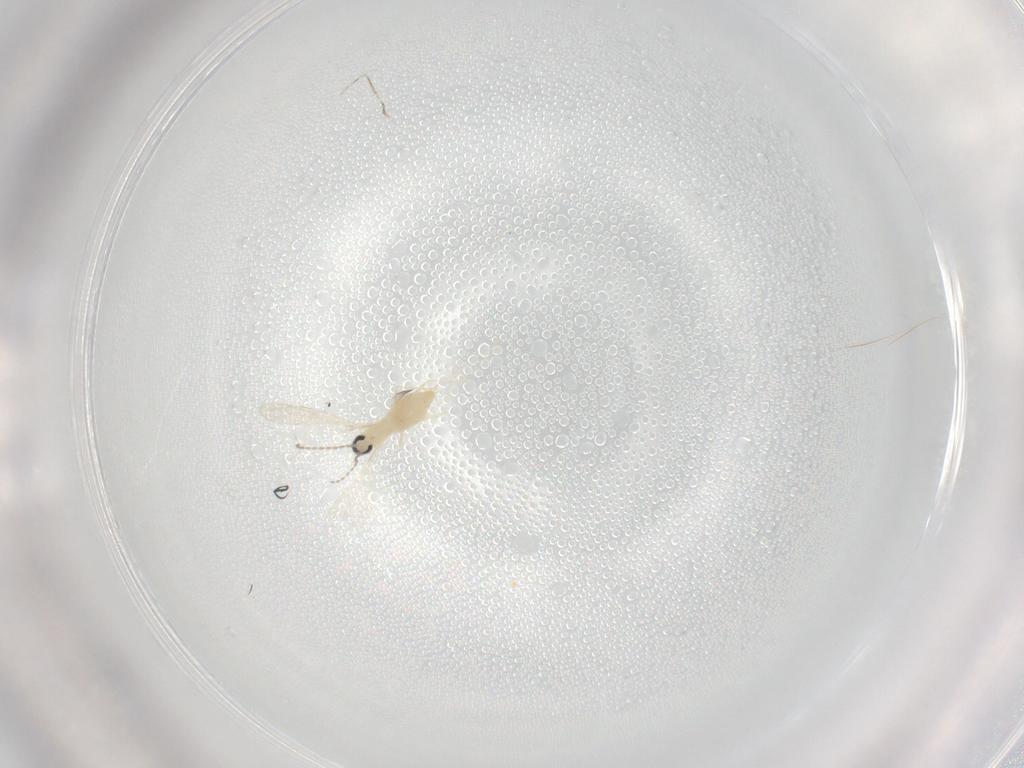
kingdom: Animalia
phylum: Arthropoda
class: Insecta
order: Diptera
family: Cecidomyiidae
